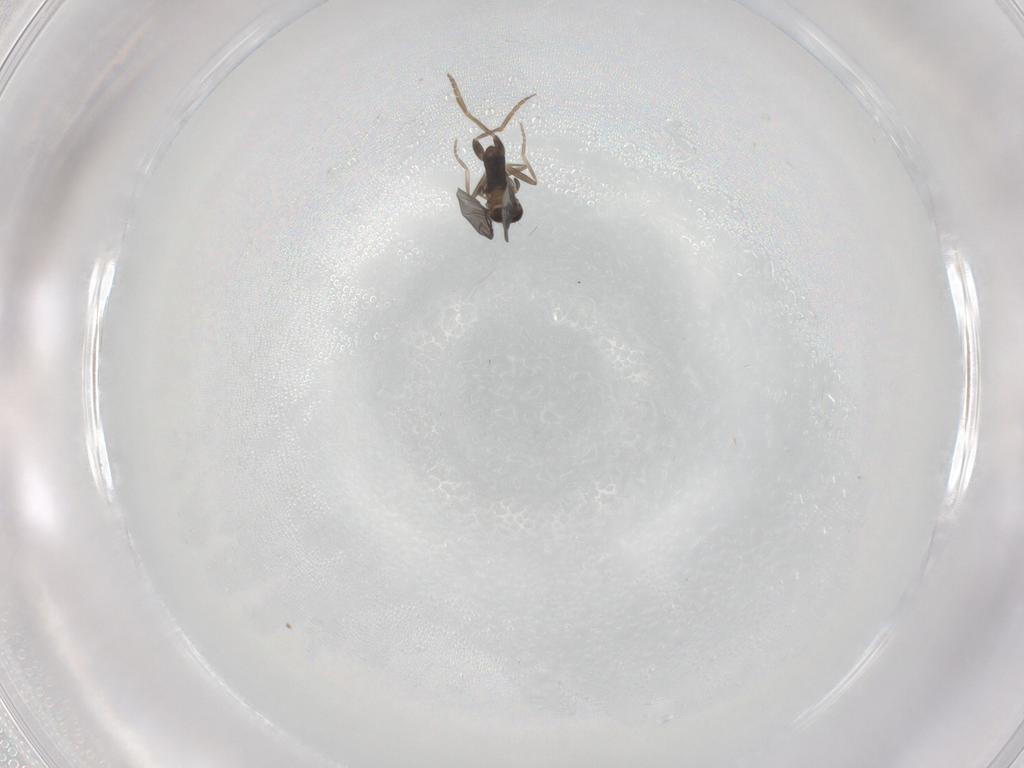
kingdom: Animalia
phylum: Arthropoda
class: Insecta
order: Diptera
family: Phoridae
